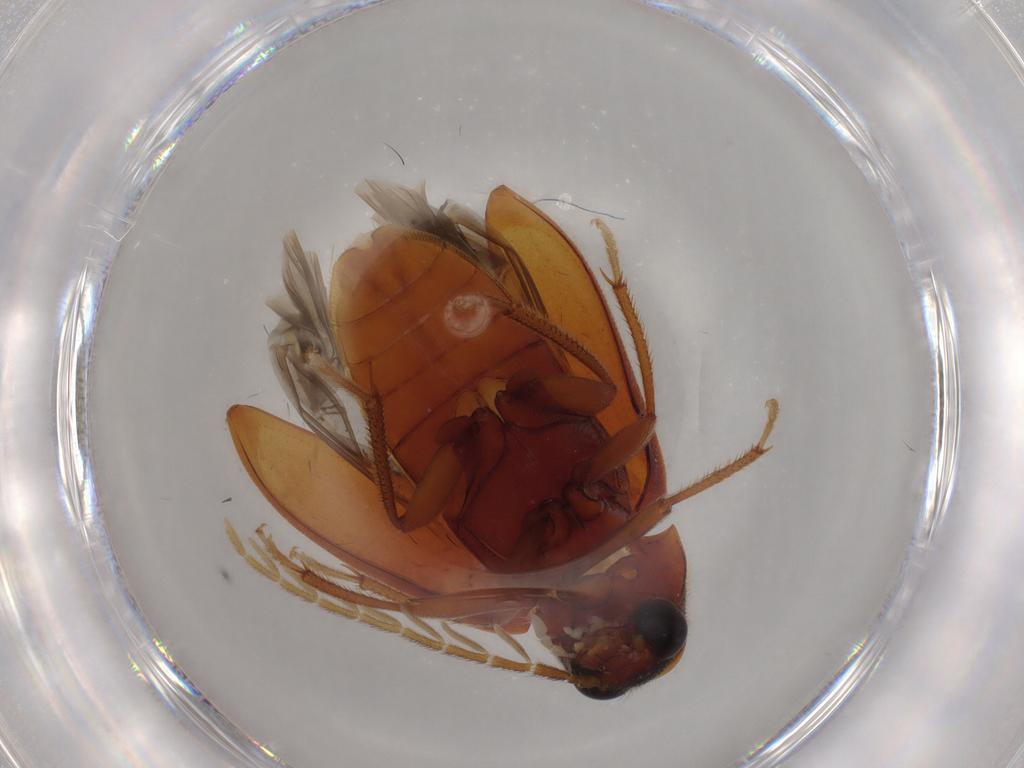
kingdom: Animalia
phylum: Arthropoda
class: Insecta
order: Coleoptera
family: Ptilodactylidae
